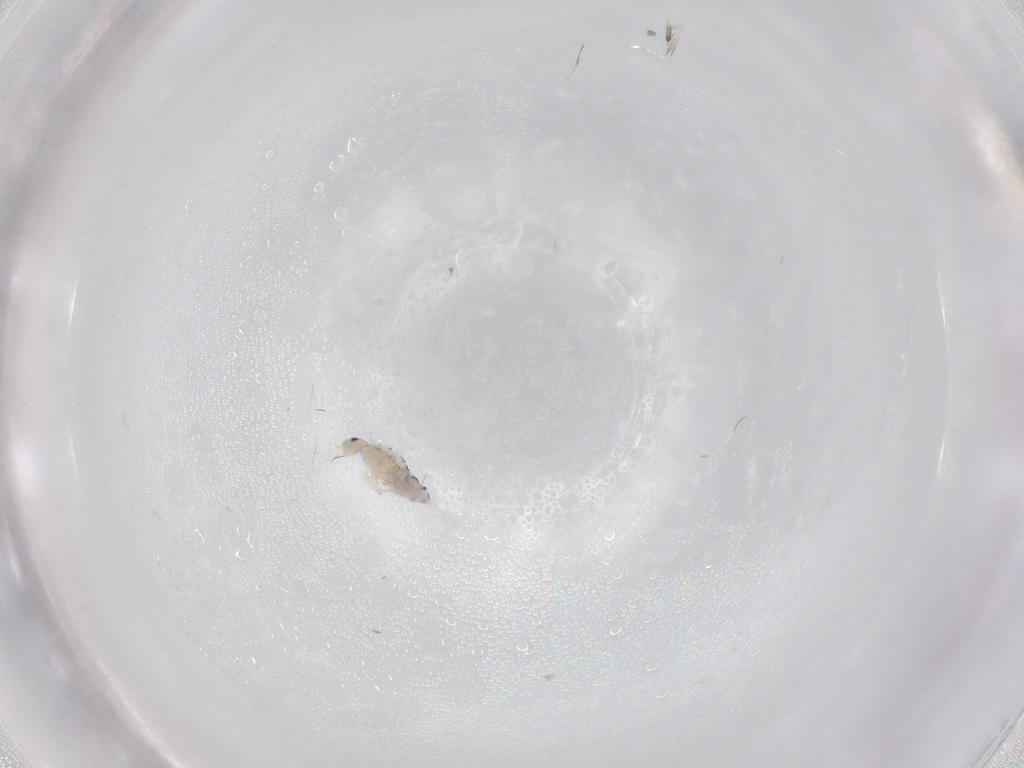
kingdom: Animalia
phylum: Arthropoda
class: Collembola
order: Entomobryomorpha
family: Entomobryidae
